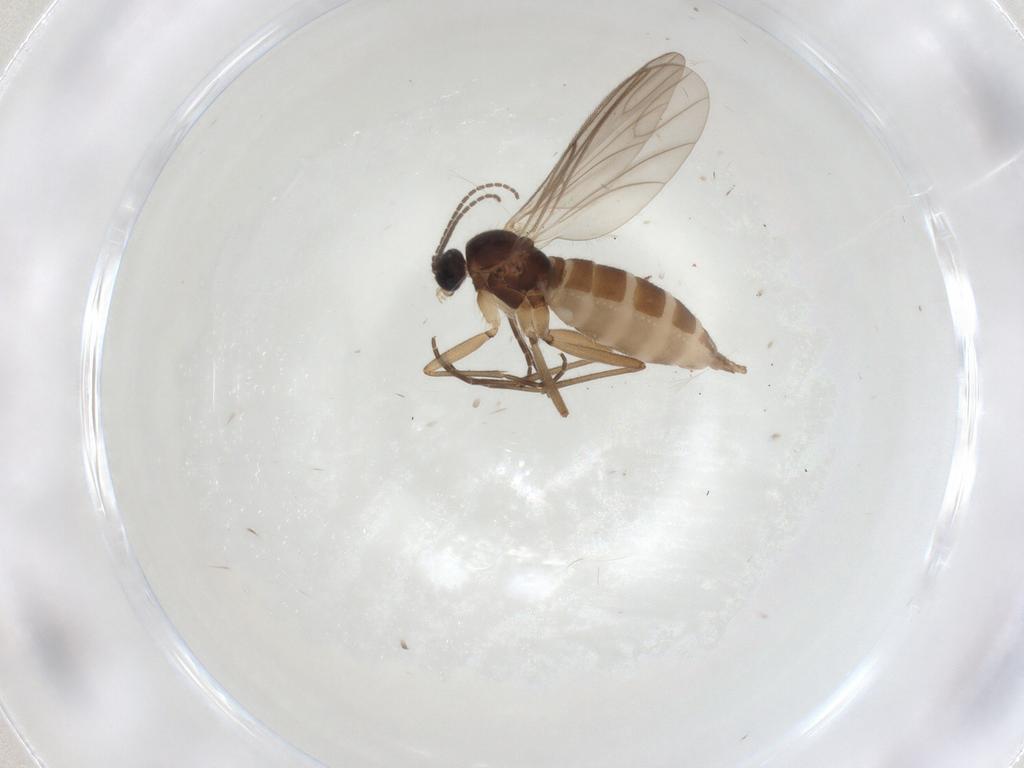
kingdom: Animalia
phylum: Arthropoda
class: Insecta
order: Diptera
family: Sciaridae
